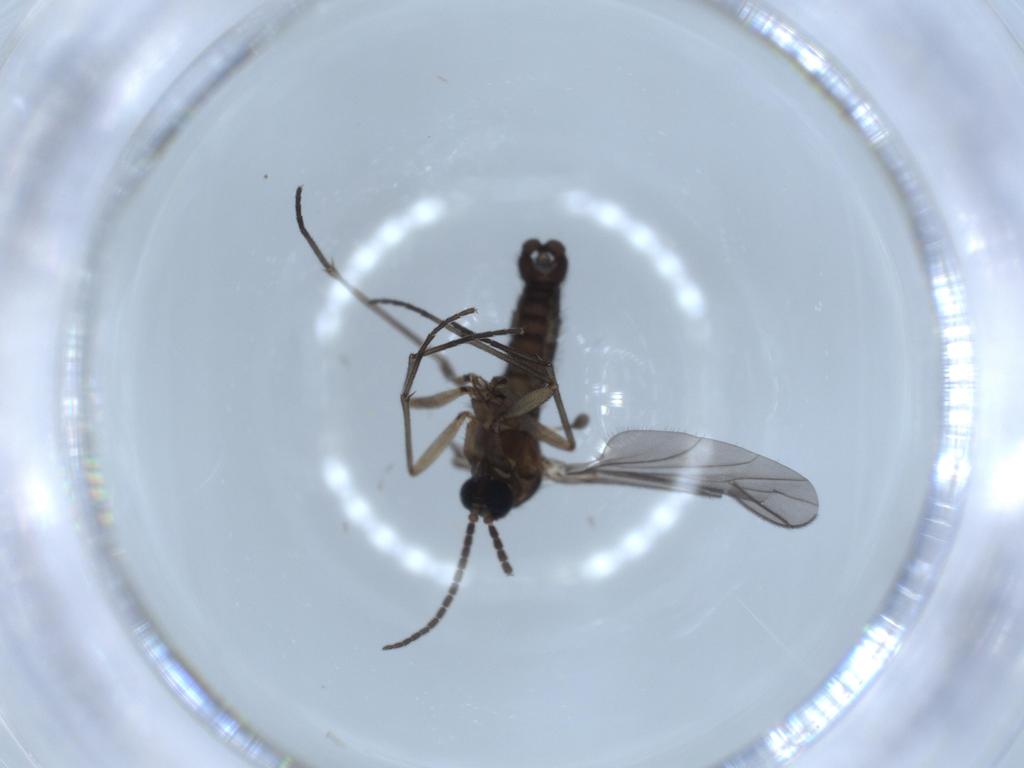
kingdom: Animalia
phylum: Arthropoda
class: Insecta
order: Diptera
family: Sciaridae
